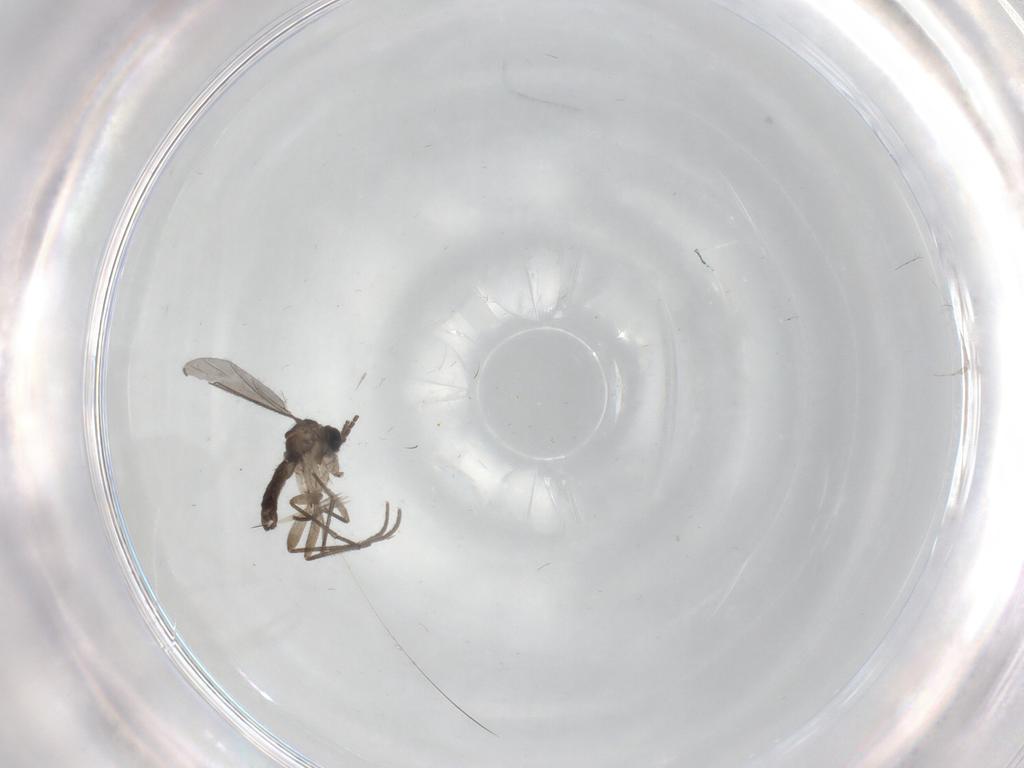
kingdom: Animalia
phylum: Arthropoda
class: Insecta
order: Diptera
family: Sciaridae
